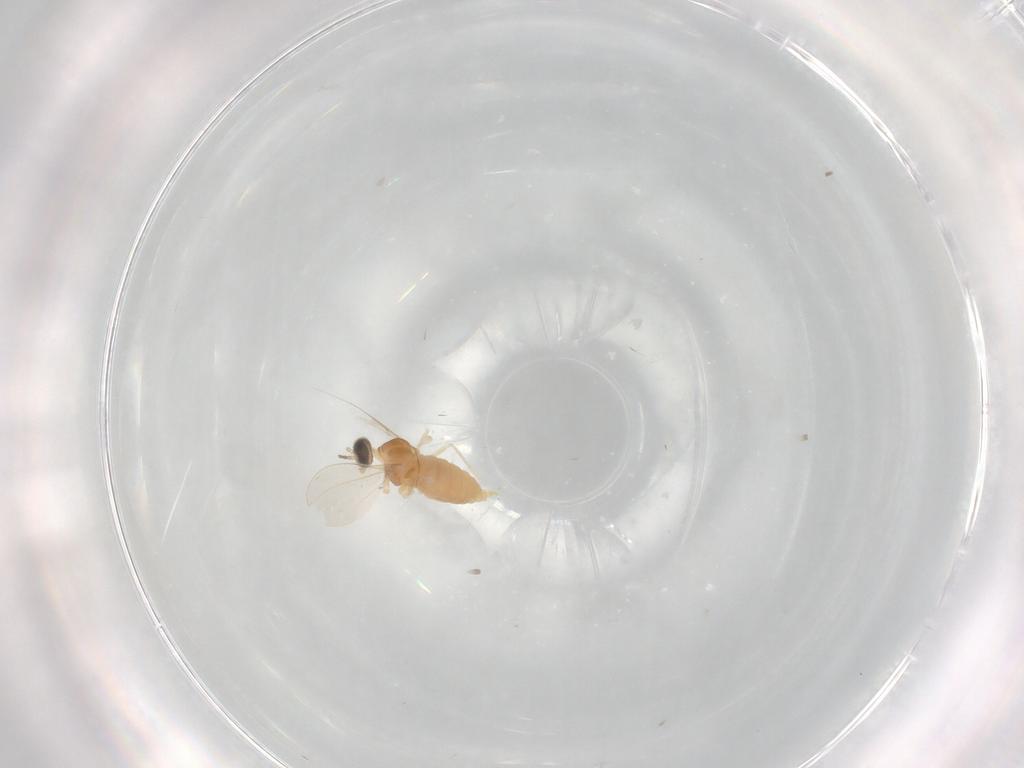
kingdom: Animalia
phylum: Arthropoda
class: Insecta
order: Diptera
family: Cecidomyiidae
